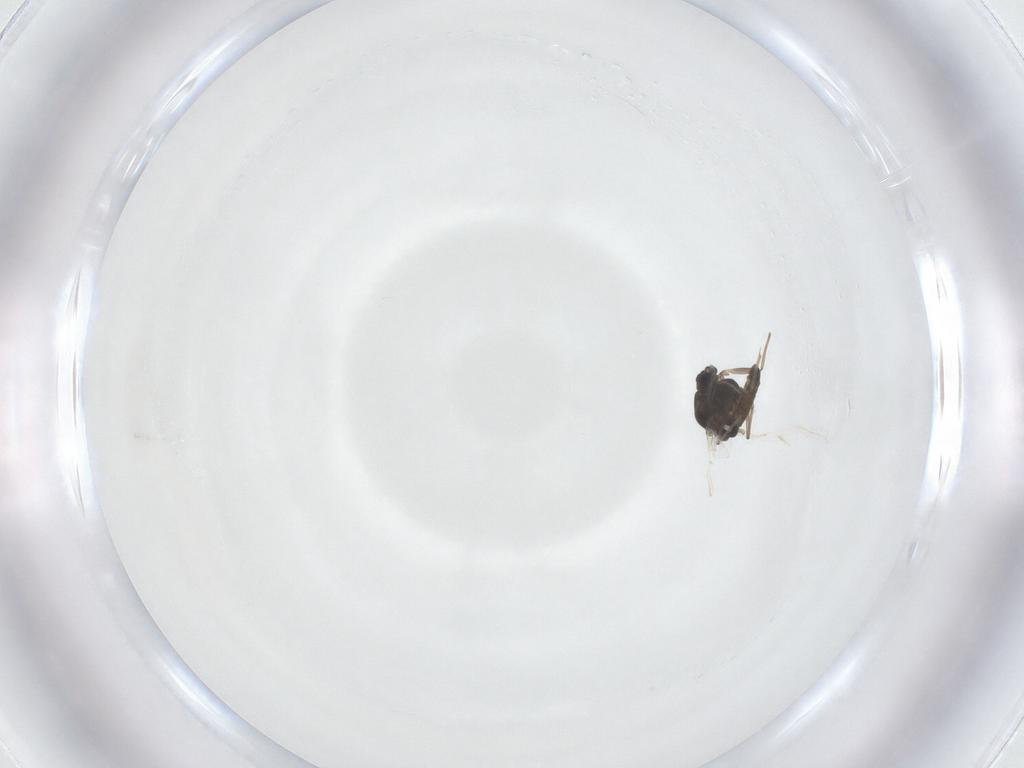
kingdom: Animalia
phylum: Arthropoda
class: Insecta
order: Diptera
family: Chironomidae
